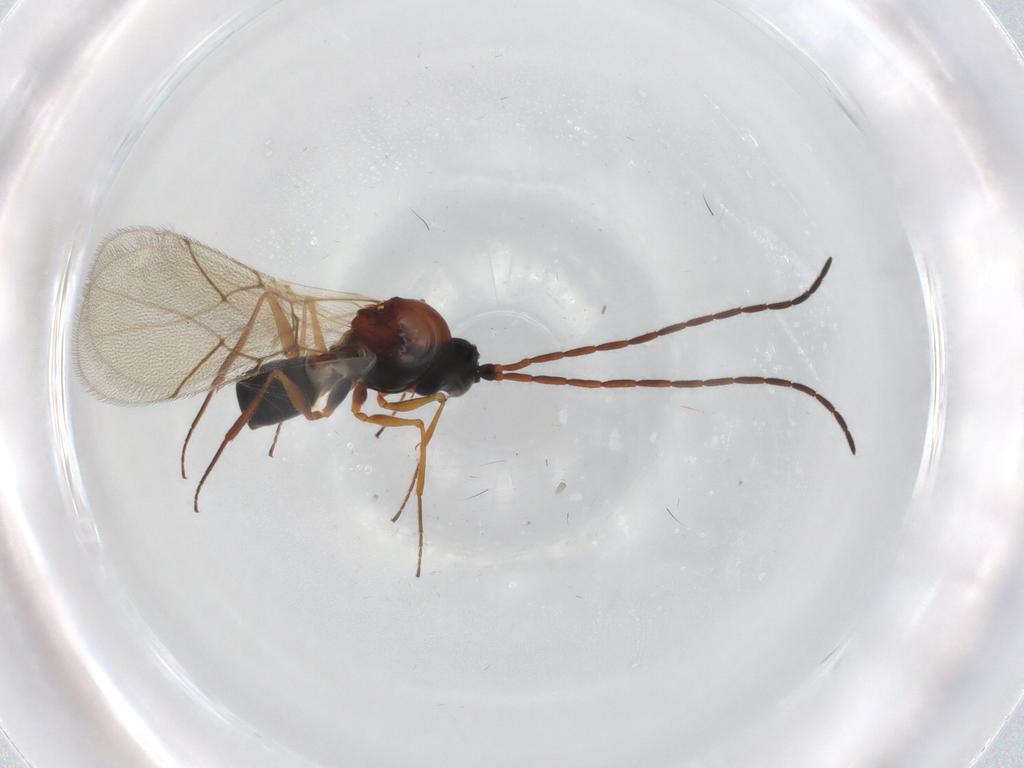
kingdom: Animalia
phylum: Arthropoda
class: Insecta
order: Hymenoptera
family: Figitidae
